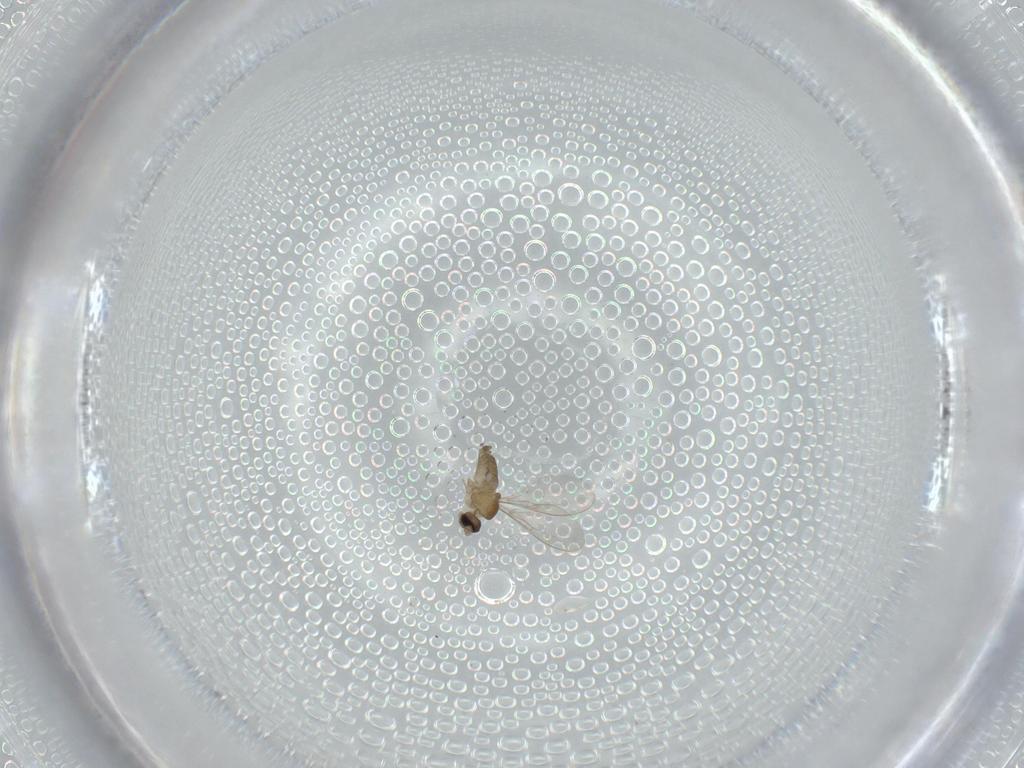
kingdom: Animalia
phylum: Arthropoda
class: Insecta
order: Diptera
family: Cecidomyiidae
